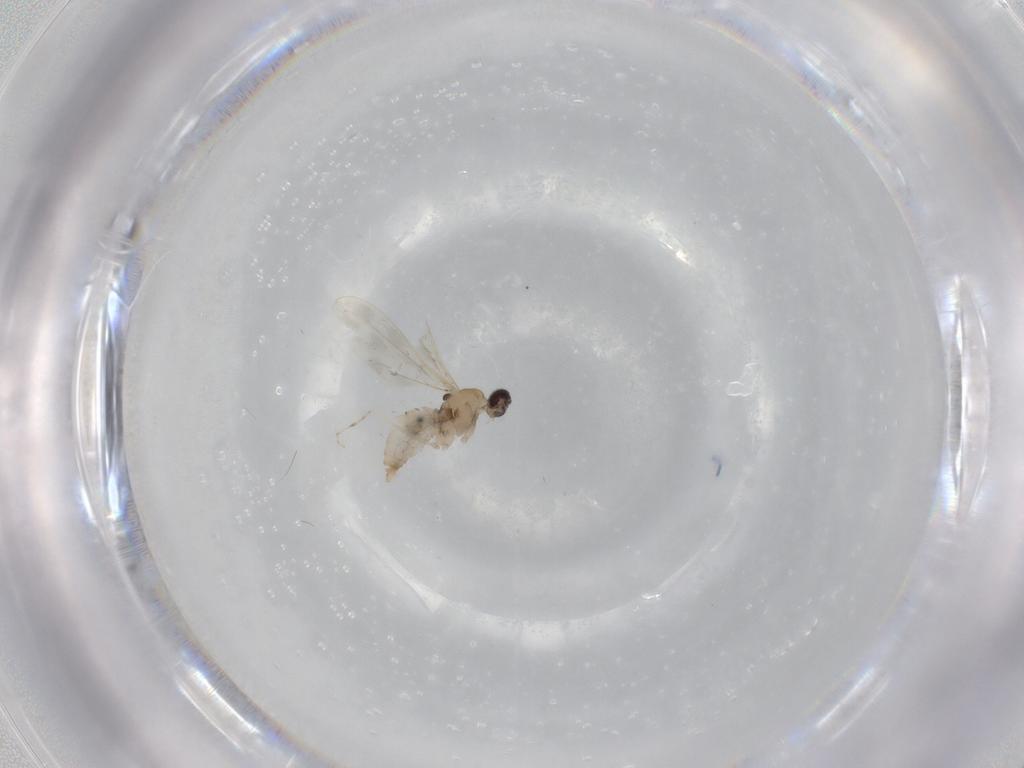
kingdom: Animalia
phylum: Arthropoda
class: Insecta
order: Diptera
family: Cecidomyiidae
